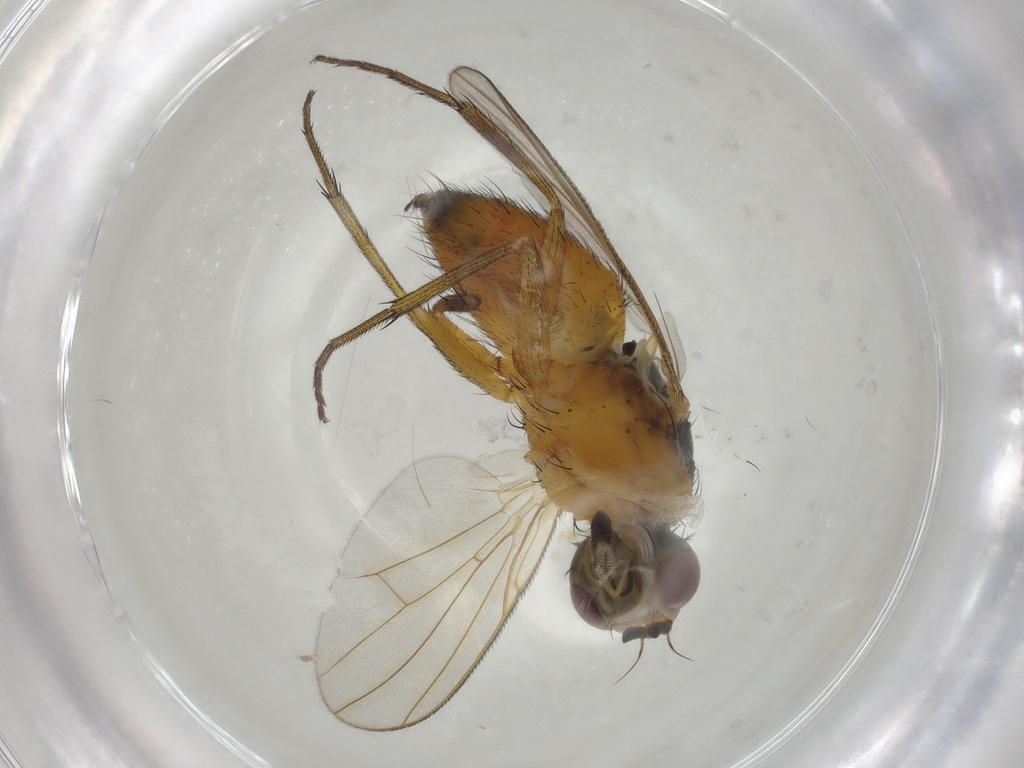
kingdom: Animalia
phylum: Arthropoda
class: Insecta
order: Diptera
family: Muscidae
